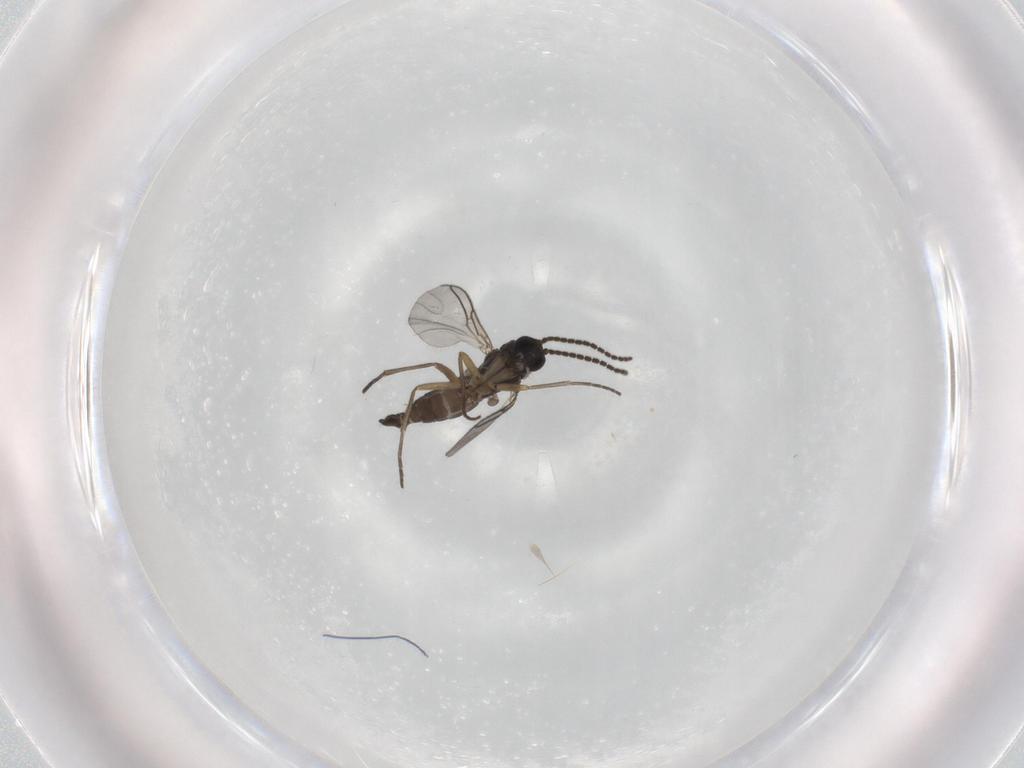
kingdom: Animalia
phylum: Arthropoda
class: Insecta
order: Diptera
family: Sciaridae
